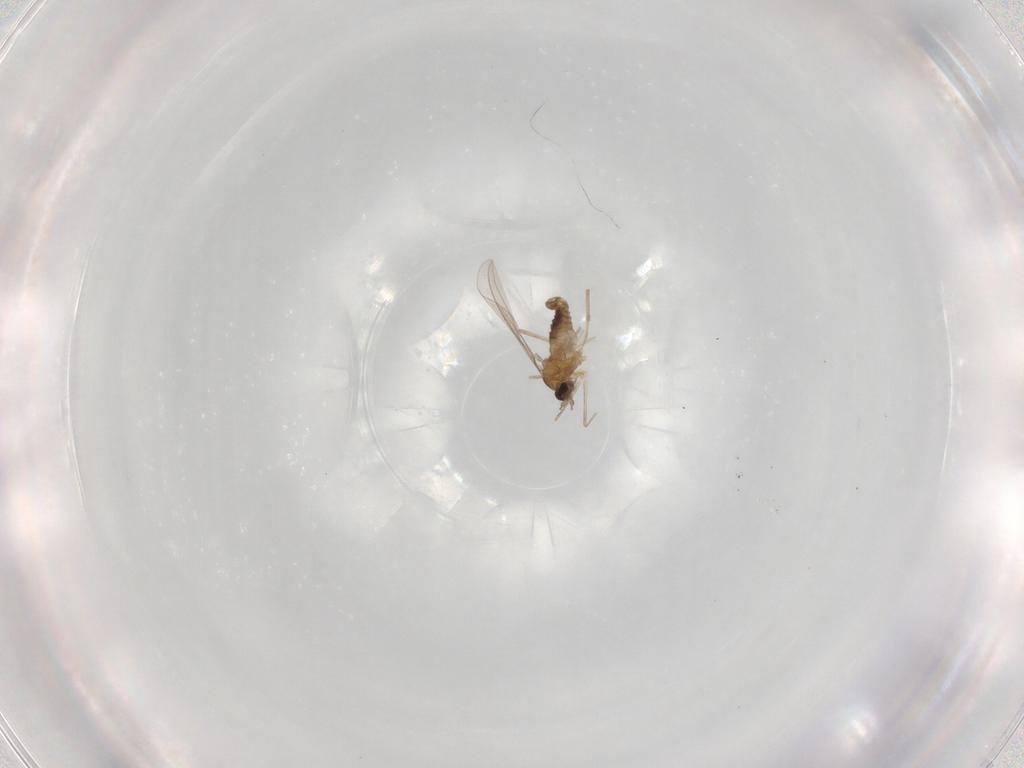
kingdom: Animalia
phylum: Arthropoda
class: Insecta
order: Diptera
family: Cecidomyiidae
